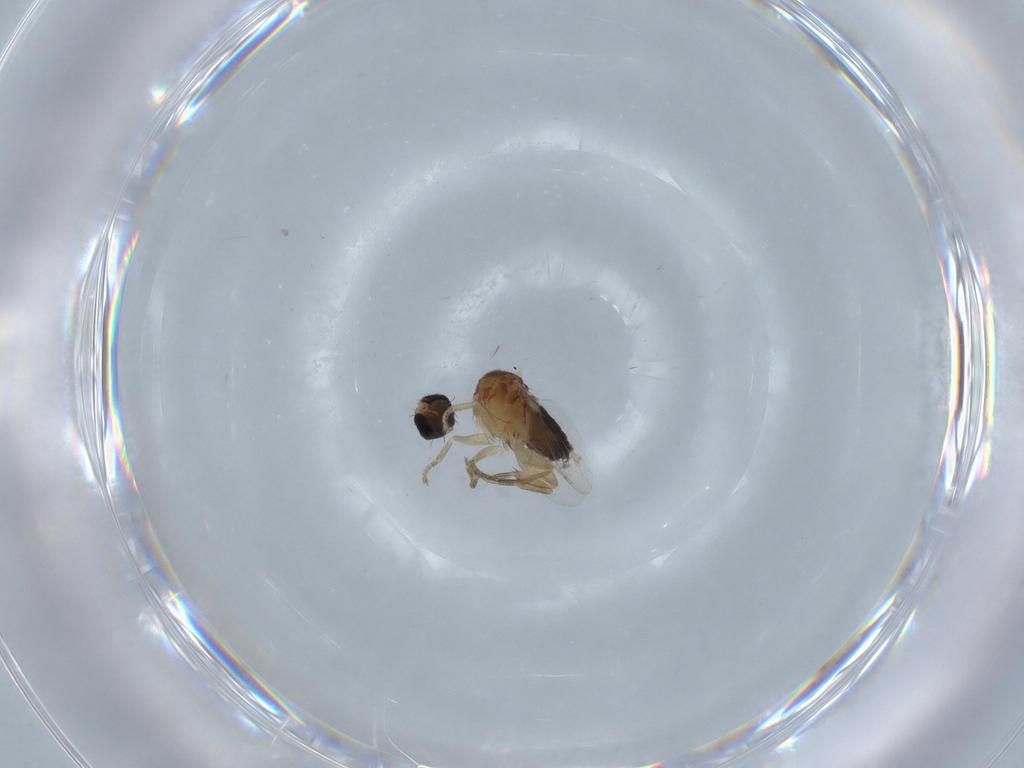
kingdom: Animalia
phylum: Arthropoda
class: Insecta
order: Diptera
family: Phoridae
